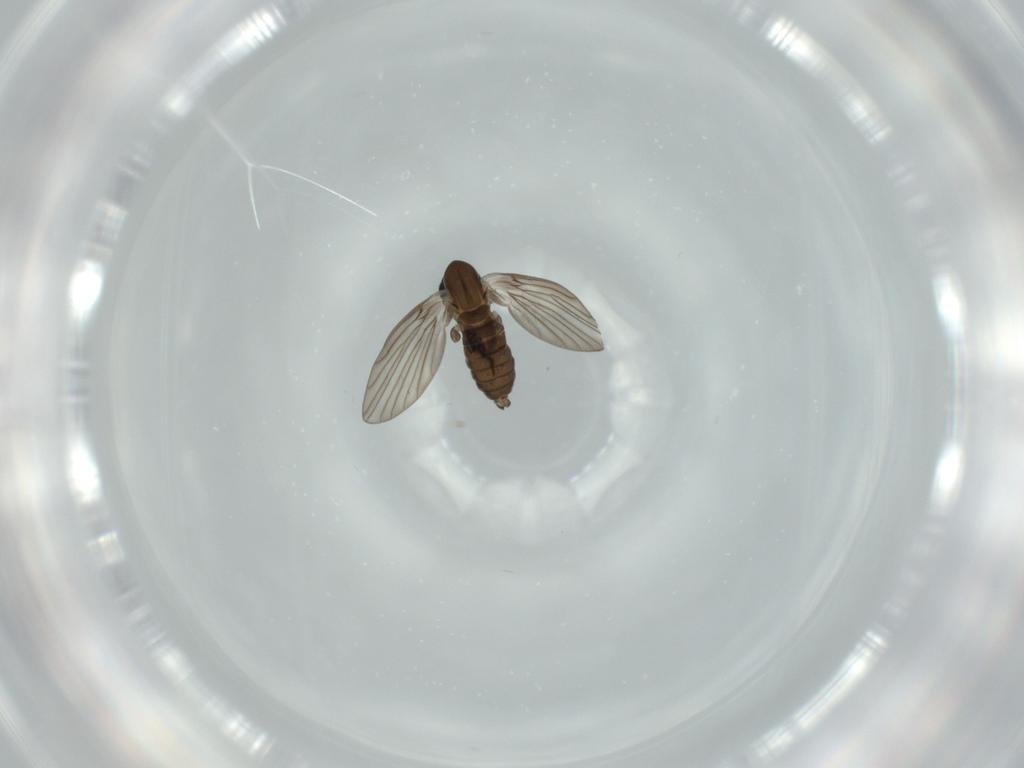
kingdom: Animalia
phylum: Arthropoda
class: Insecta
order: Diptera
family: Psychodidae
